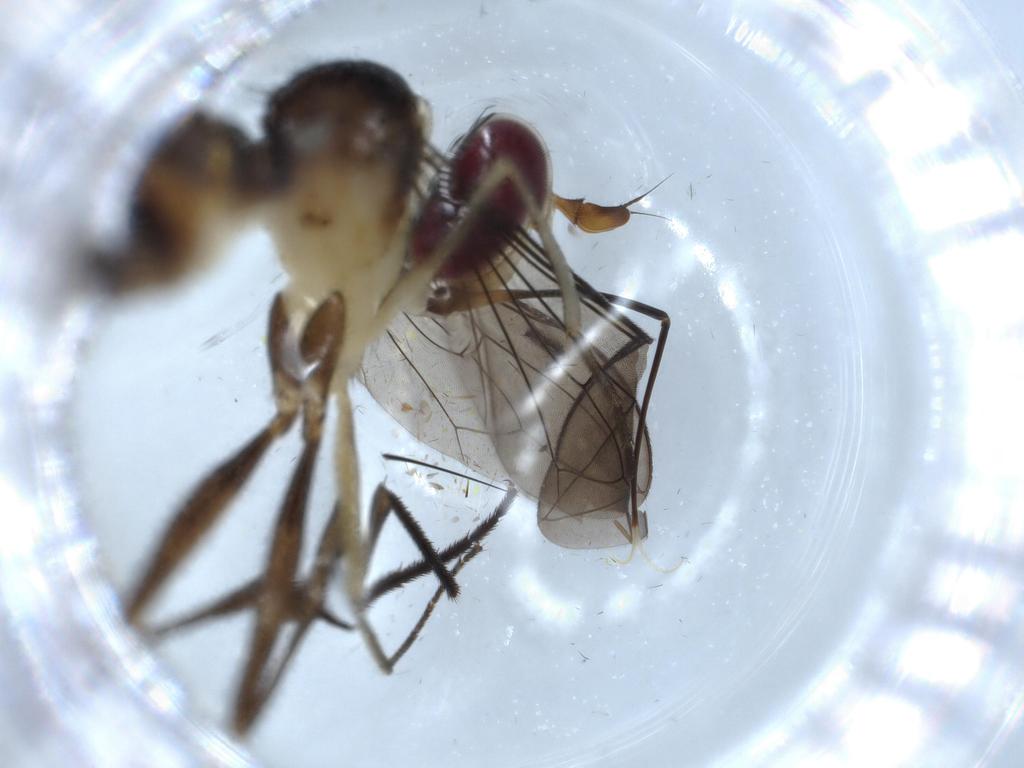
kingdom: Animalia
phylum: Arthropoda
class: Insecta
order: Diptera
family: Conopidae
